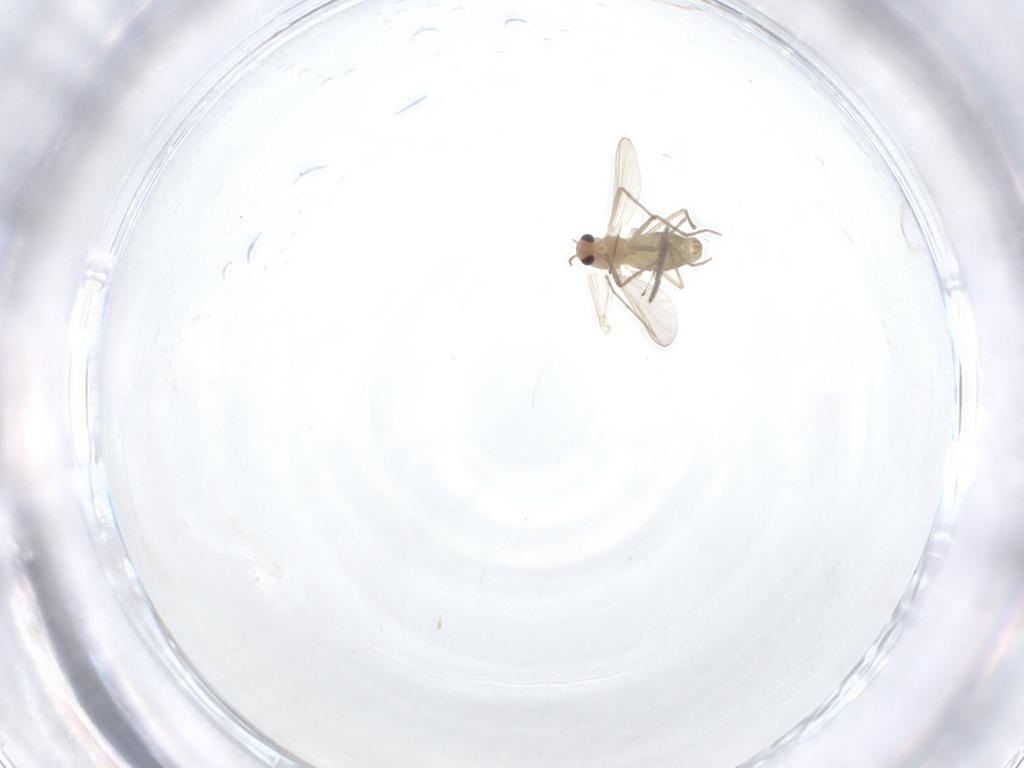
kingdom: Animalia
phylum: Arthropoda
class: Insecta
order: Diptera
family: Chironomidae
